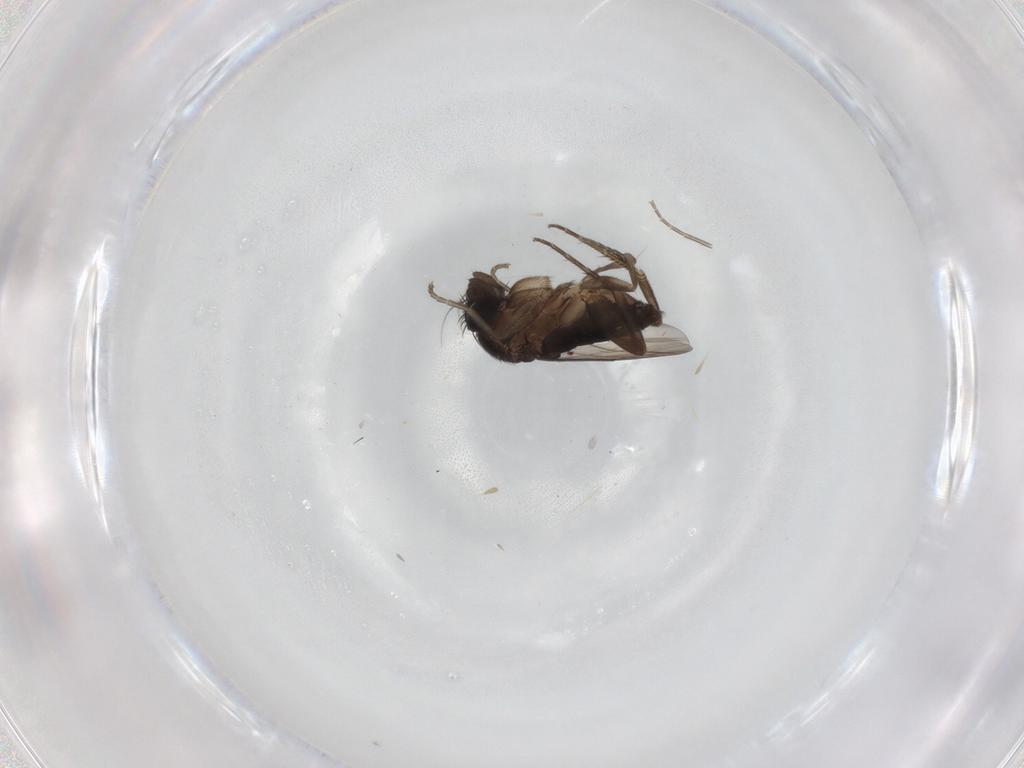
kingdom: Animalia
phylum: Arthropoda
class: Insecta
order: Diptera
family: Phoridae
